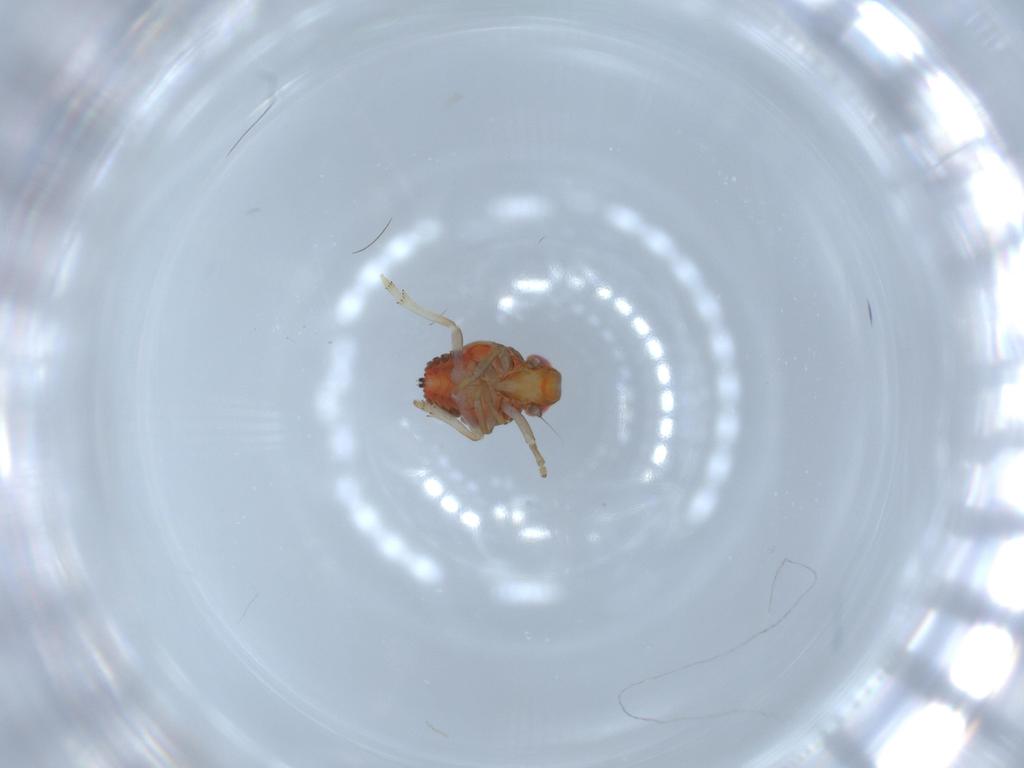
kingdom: Animalia
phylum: Arthropoda
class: Insecta
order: Hemiptera
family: Issidae
